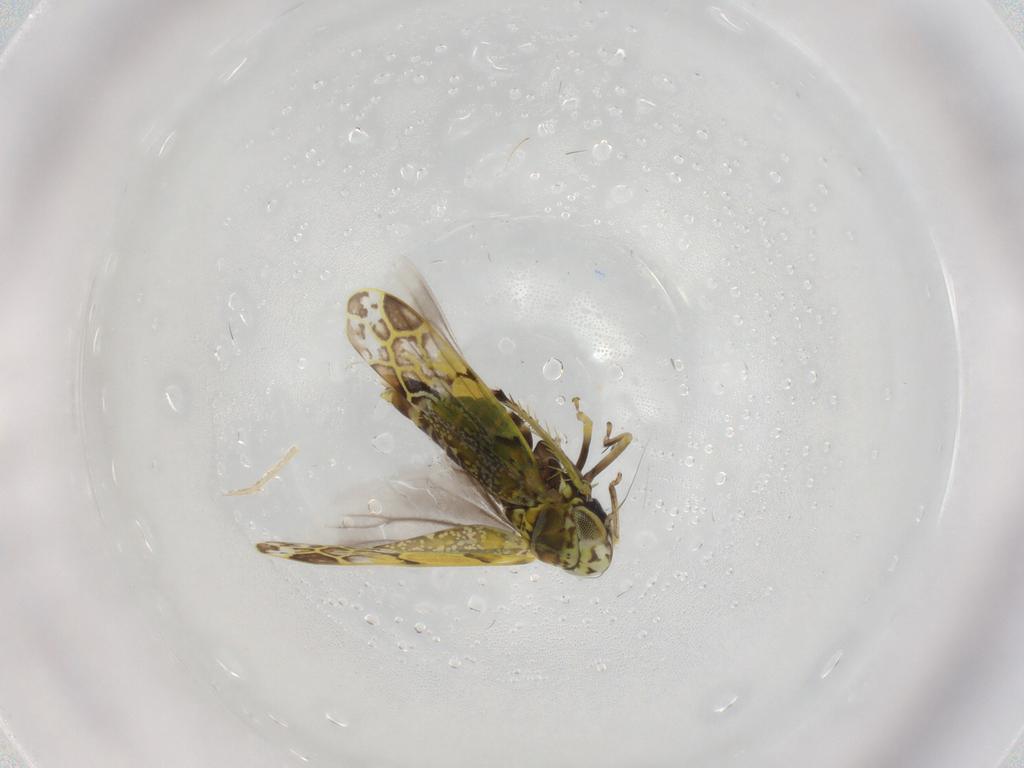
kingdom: Animalia
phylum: Arthropoda
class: Insecta
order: Hemiptera
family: Cicadellidae
